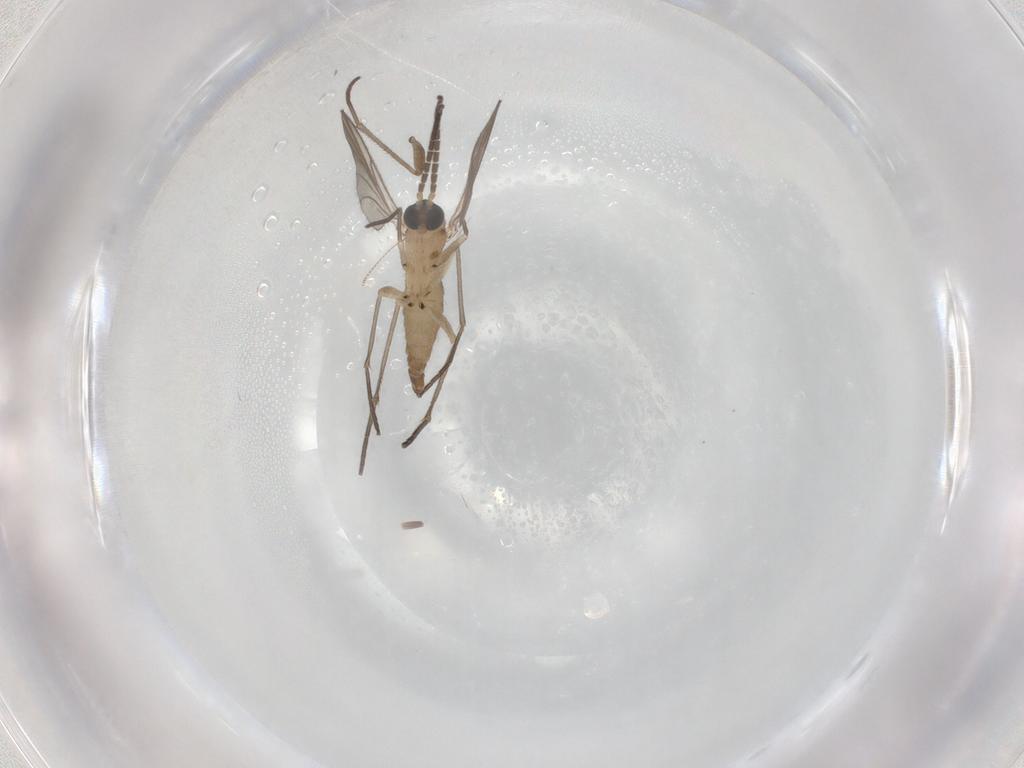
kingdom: Animalia
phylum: Arthropoda
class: Insecta
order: Diptera
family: Sciaridae
